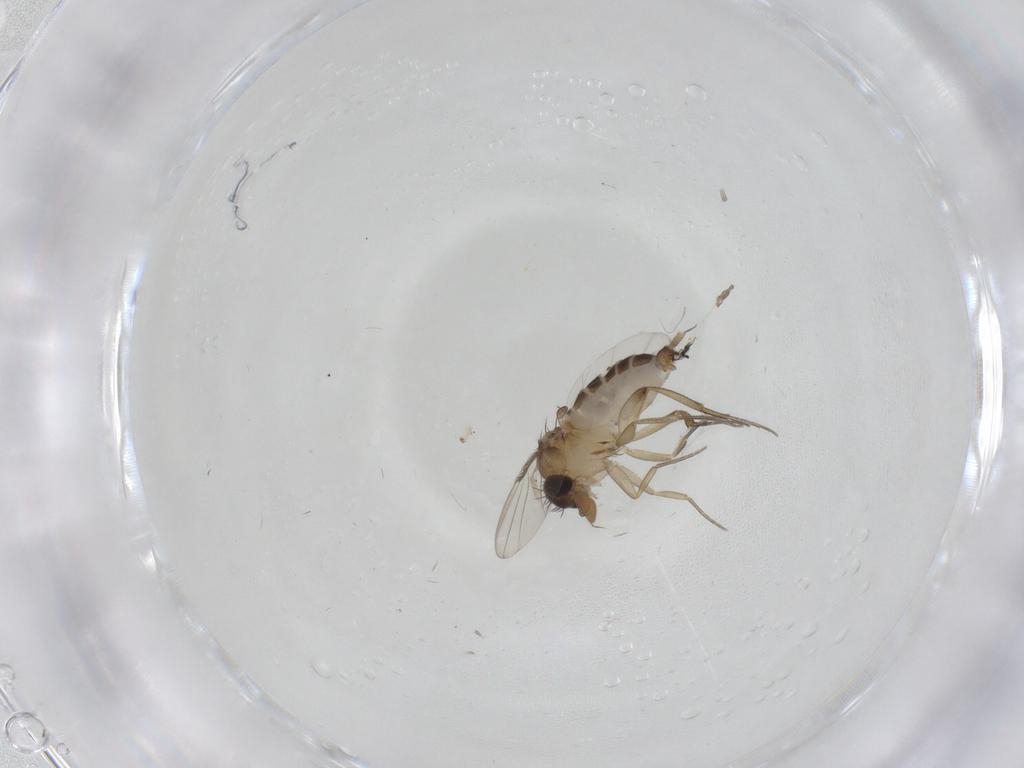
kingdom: Animalia
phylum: Arthropoda
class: Insecta
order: Diptera
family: Psychodidae
